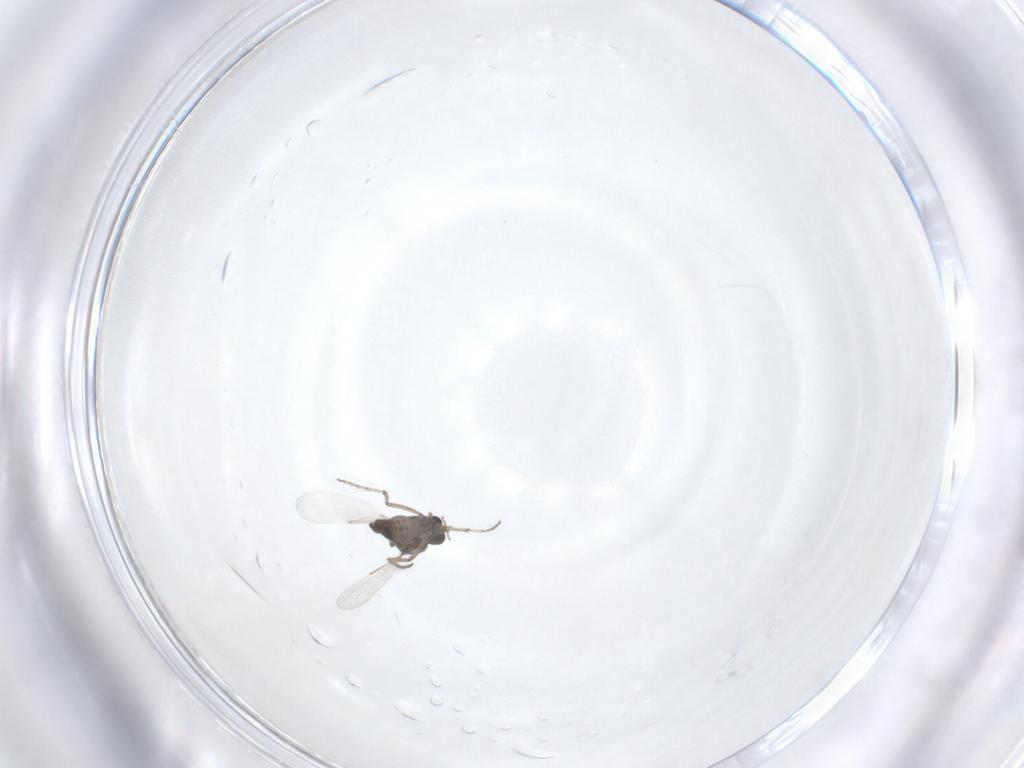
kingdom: Animalia
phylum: Arthropoda
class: Insecta
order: Diptera
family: Ceratopogonidae
